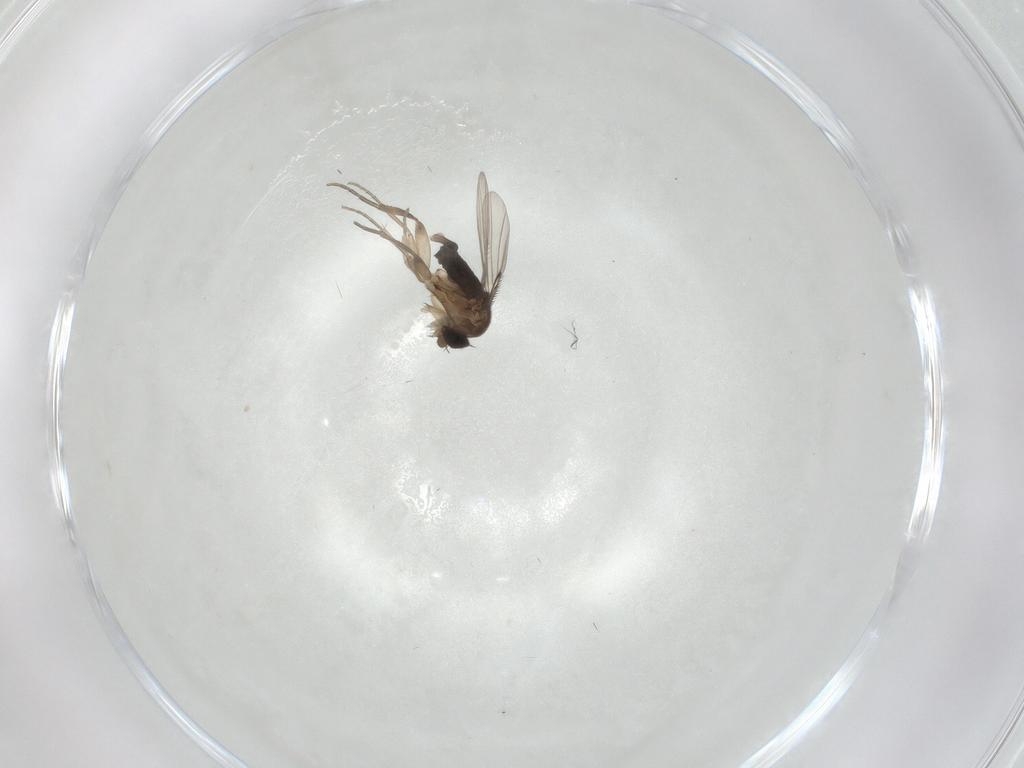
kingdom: Animalia
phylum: Arthropoda
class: Insecta
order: Diptera
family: Phoridae
